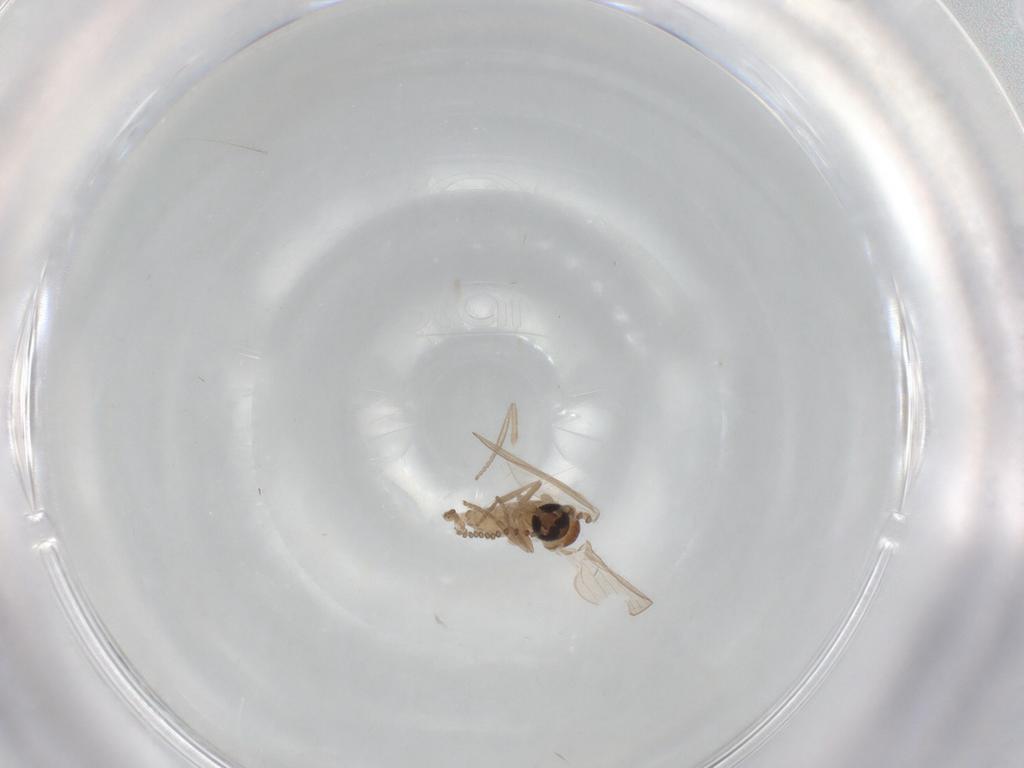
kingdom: Animalia
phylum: Arthropoda
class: Insecta
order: Diptera
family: Psychodidae
